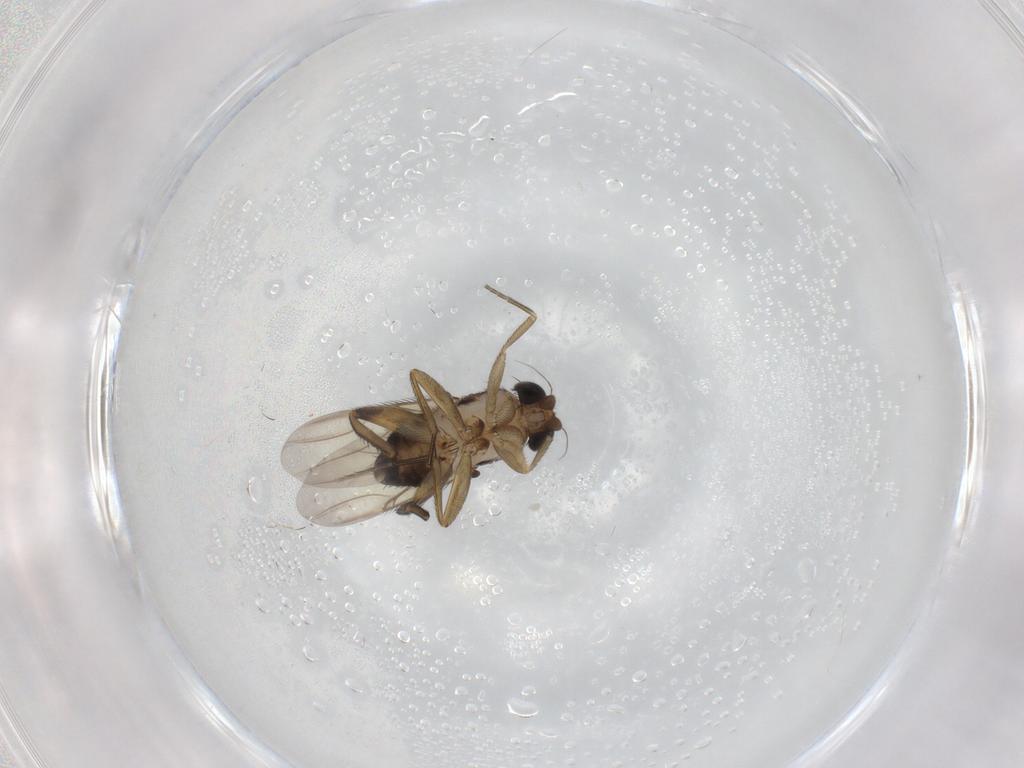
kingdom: Animalia
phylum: Arthropoda
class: Insecta
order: Diptera
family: Phoridae
